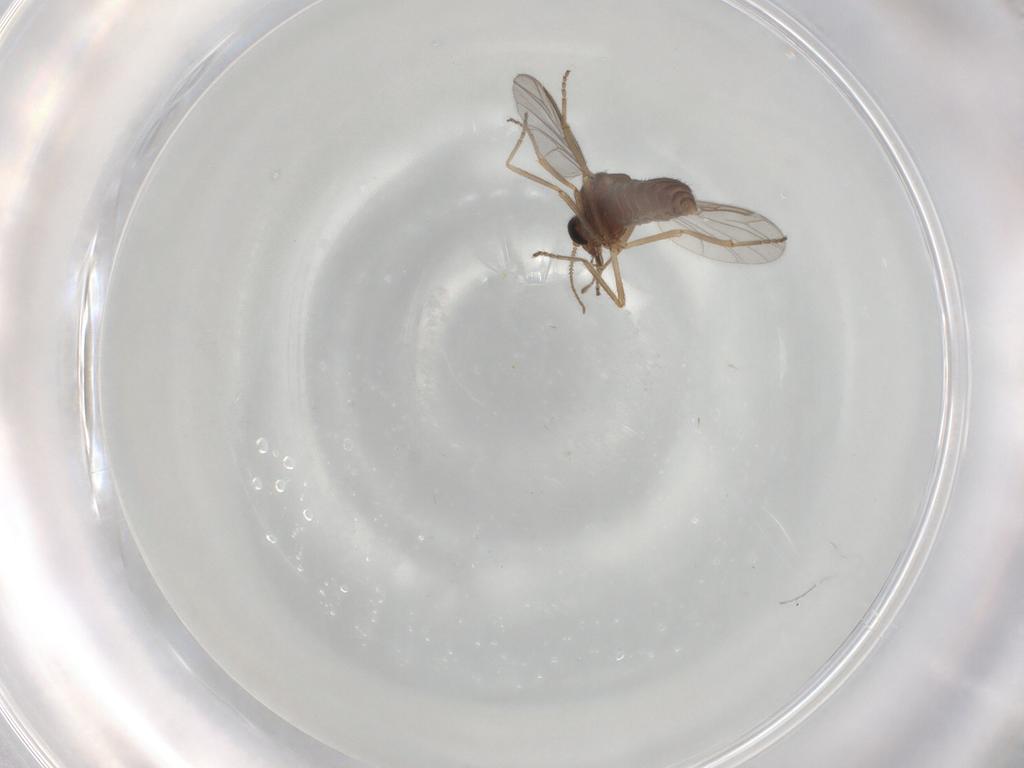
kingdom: Animalia
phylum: Arthropoda
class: Insecta
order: Diptera
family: Ceratopogonidae
